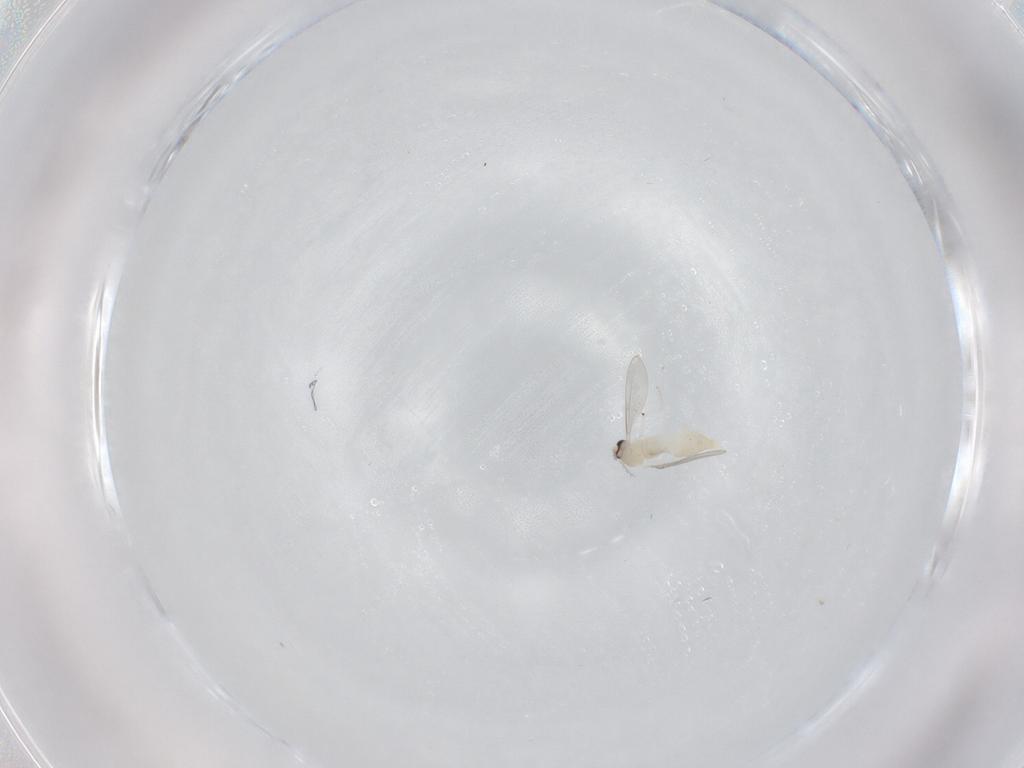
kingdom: Animalia
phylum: Arthropoda
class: Insecta
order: Diptera
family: Cecidomyiidae
